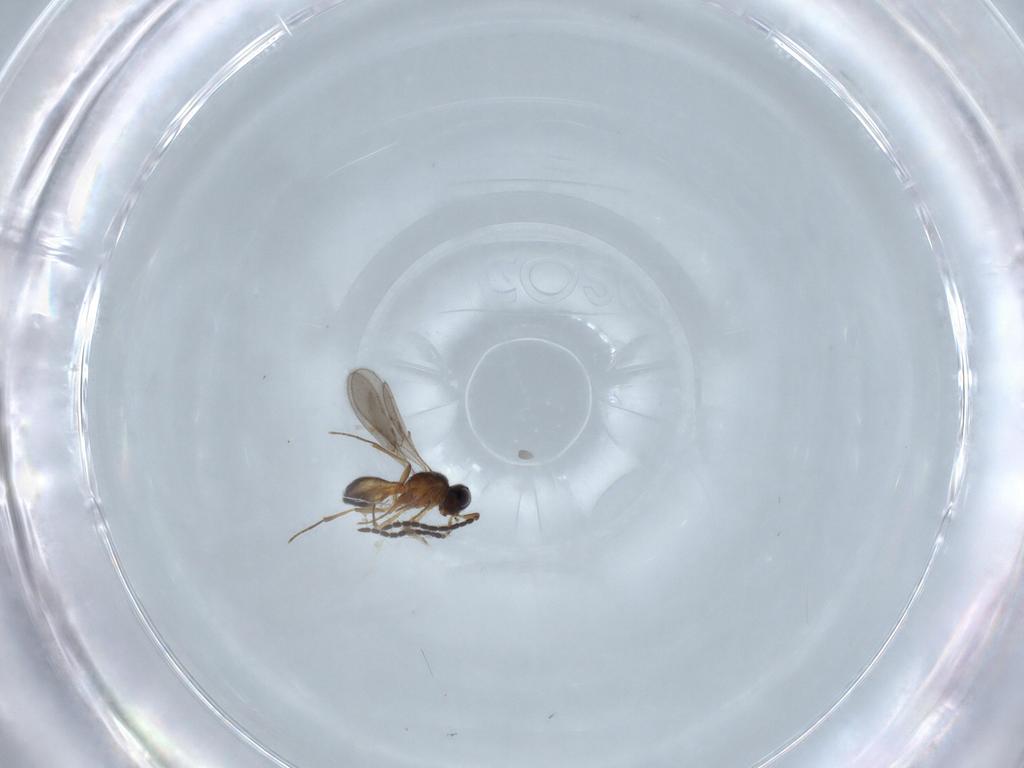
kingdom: Animalia
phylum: Arthropoda
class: Insecta
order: Hymenoptera
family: Scelionidae
